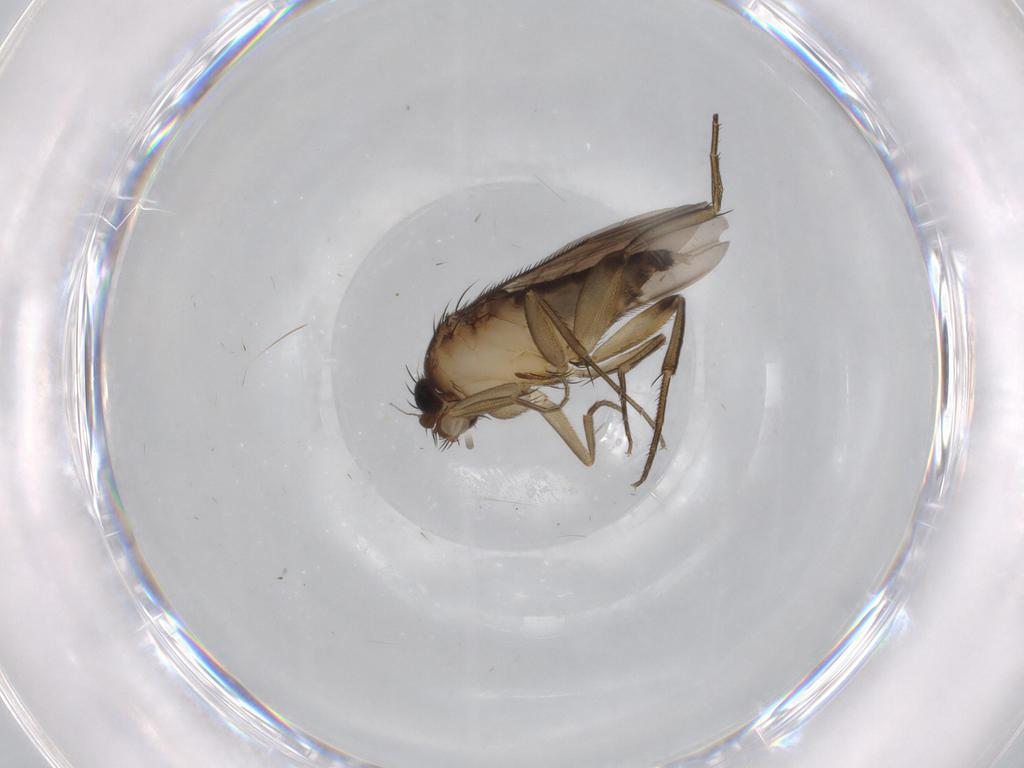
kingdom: Animalia
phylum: Arthropoda
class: Insecta
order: Diptera
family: Phoridae
